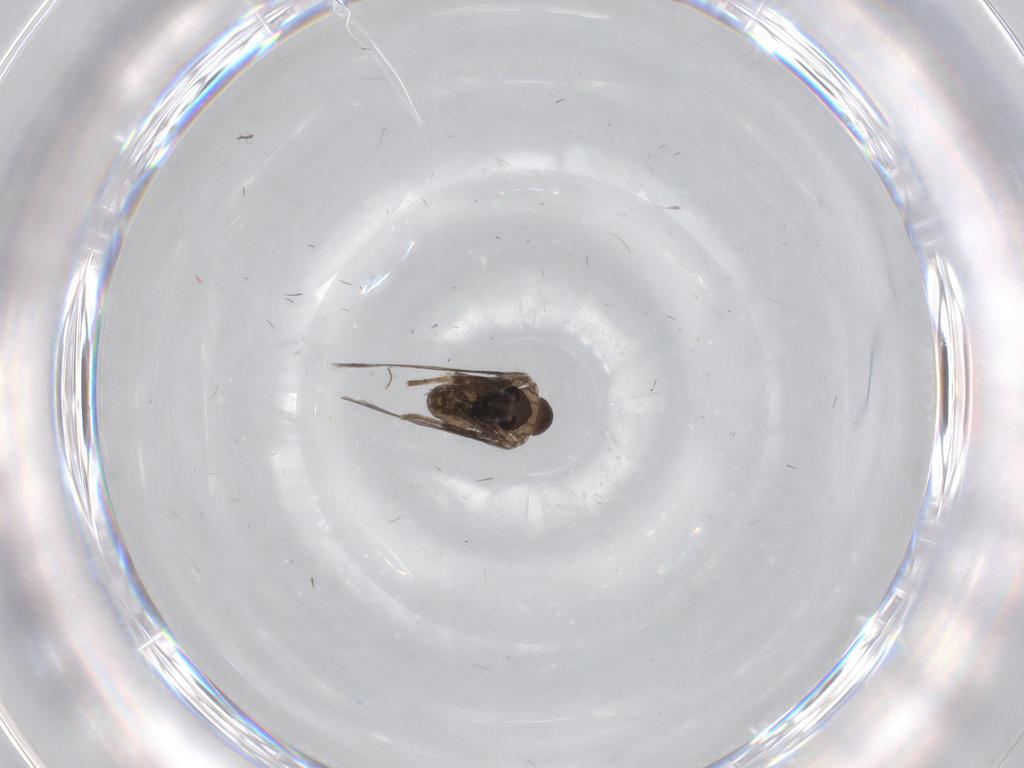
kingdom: Animalia
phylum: Arthropoda
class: Insecta
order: Diptera
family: Psychodidae
